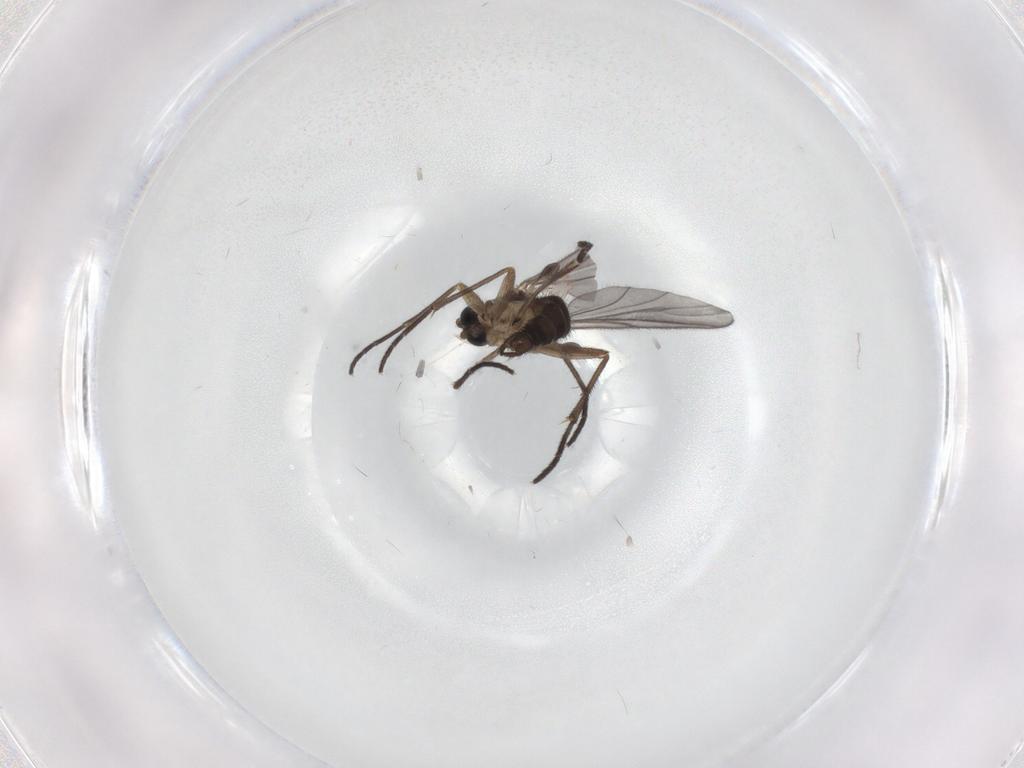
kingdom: Animalia
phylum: Arthropoda
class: Insecta
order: Diptera
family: Sciaridae
